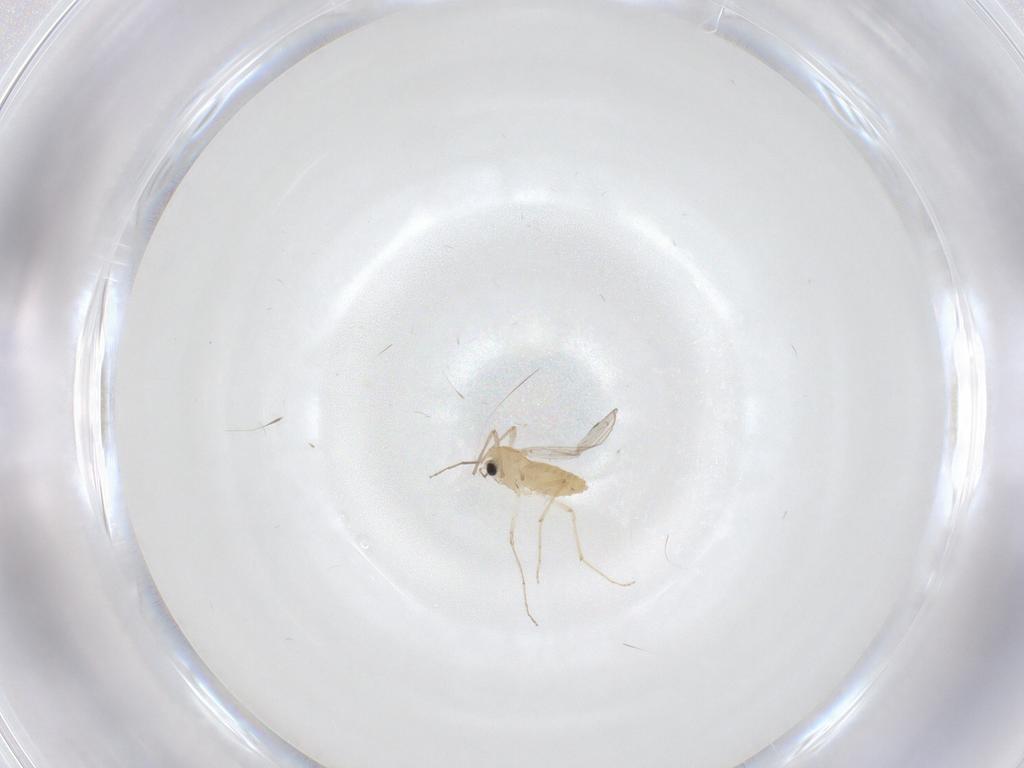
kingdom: Animalia
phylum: Arthropoda
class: Insecta
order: Diptera
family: Chironomidae
